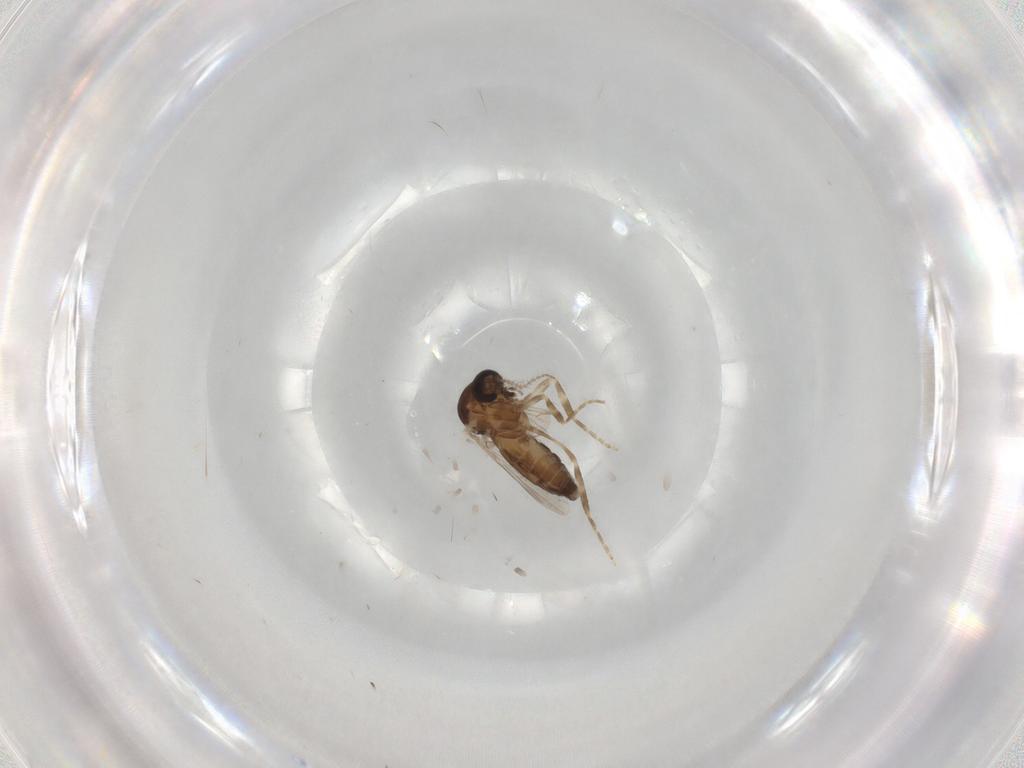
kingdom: Animalia
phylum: Arthropoda
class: Insecta
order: Diptera
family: Ceratopogonidae
